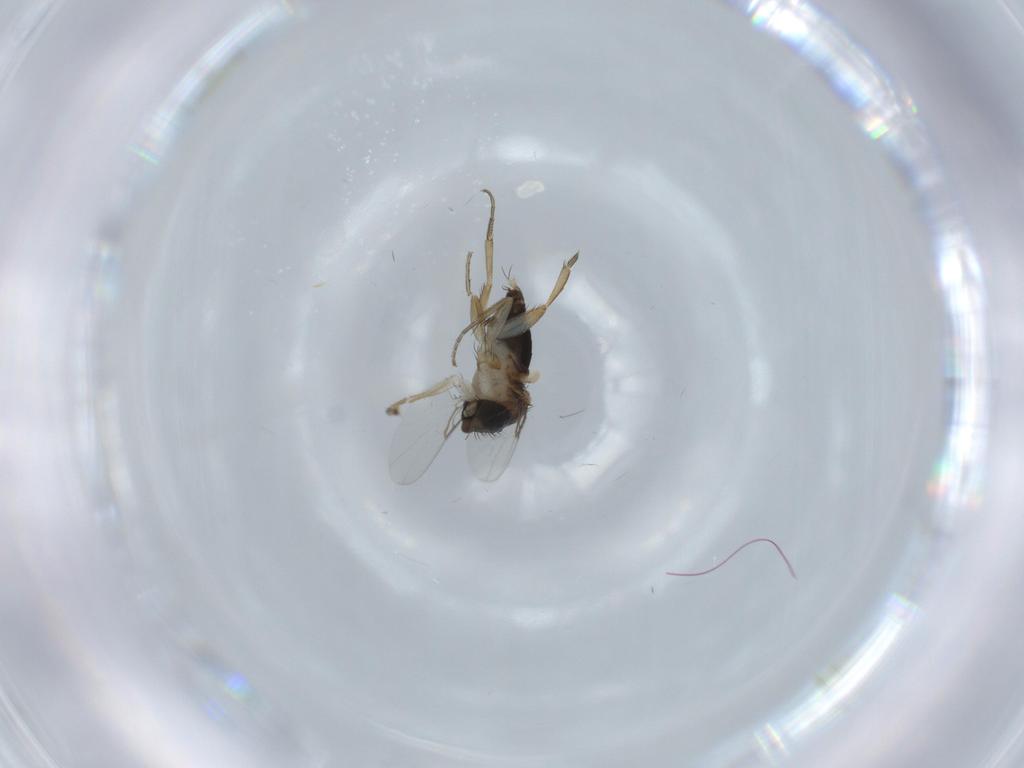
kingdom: Animalia
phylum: Arthropoda
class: Insecta
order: Diptera
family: Phoridae
